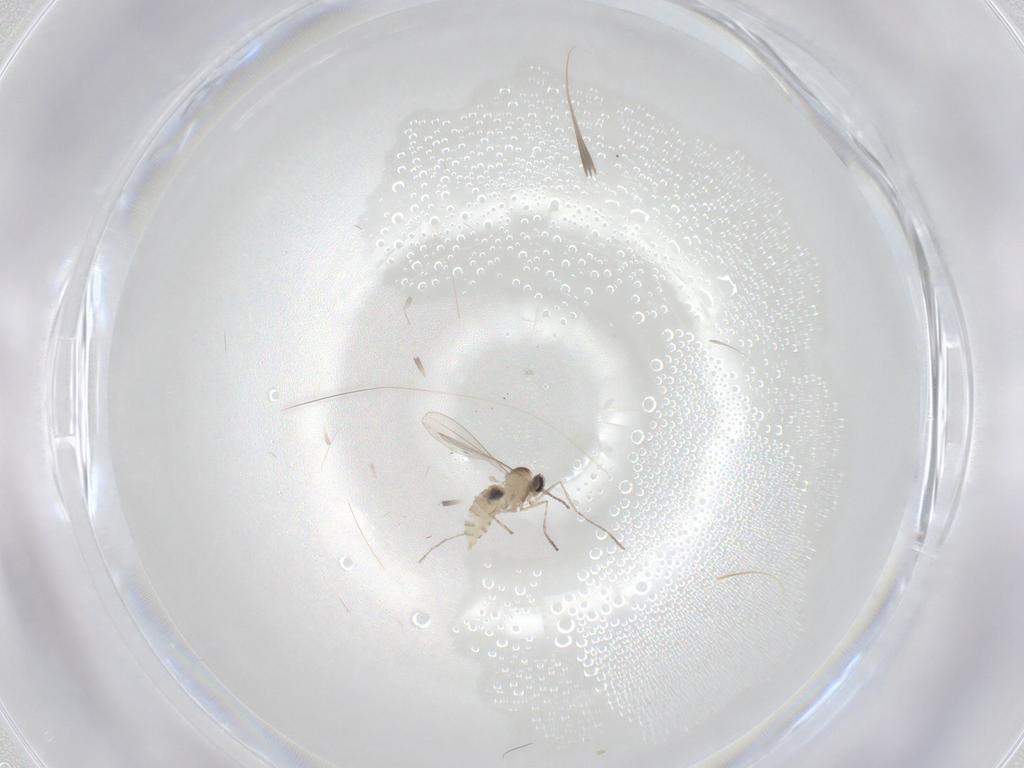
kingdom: Animalia
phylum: Arthropoda
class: Insecta
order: Diptera
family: Cecidomyiidae
